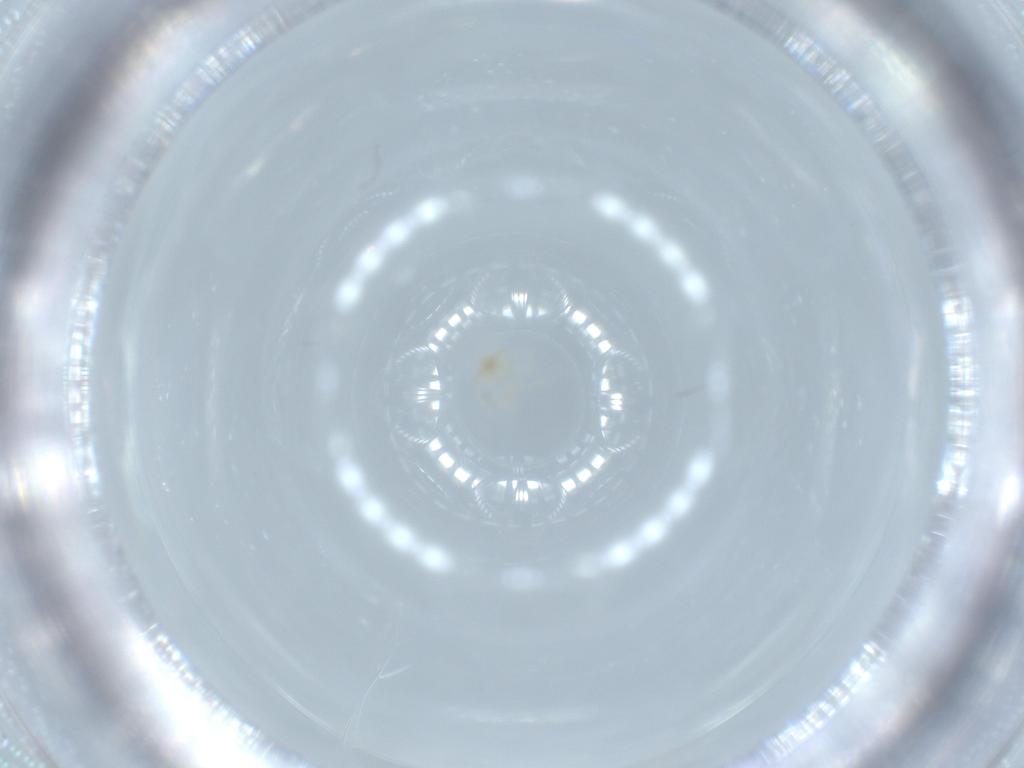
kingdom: Animalia
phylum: Arthropoda
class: Arachnida
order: Trombidiformes
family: Erythraeidae
